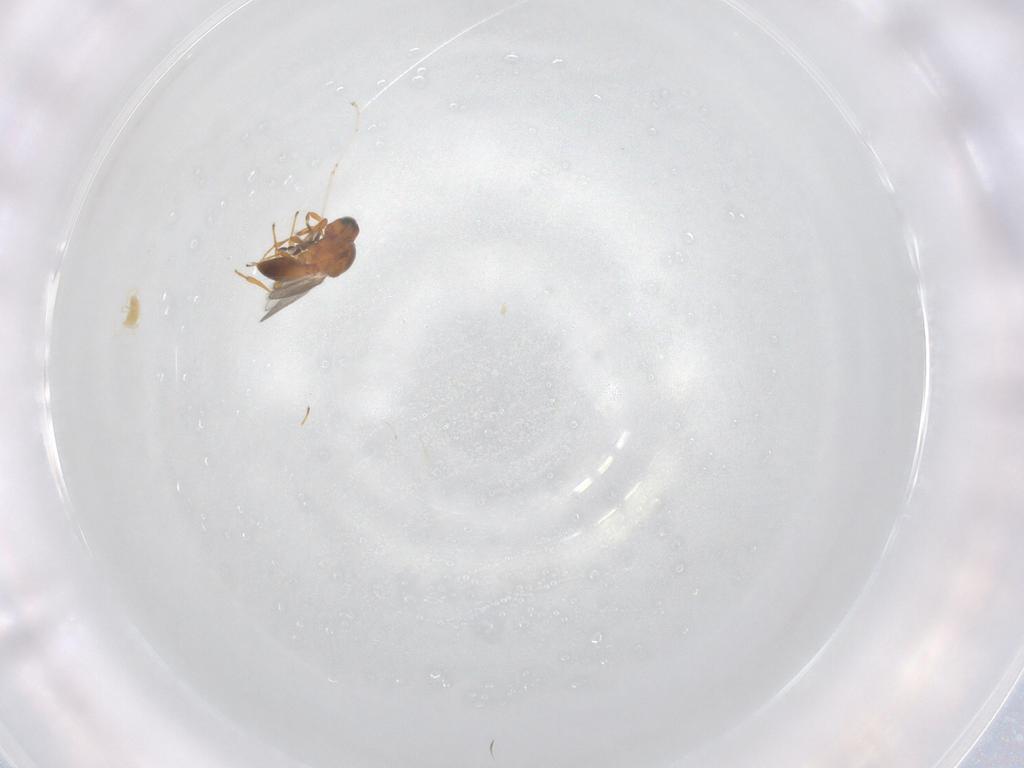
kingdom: Animalia
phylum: Arthropoda
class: Insecta
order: Hymenoptera
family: Platygastridae
